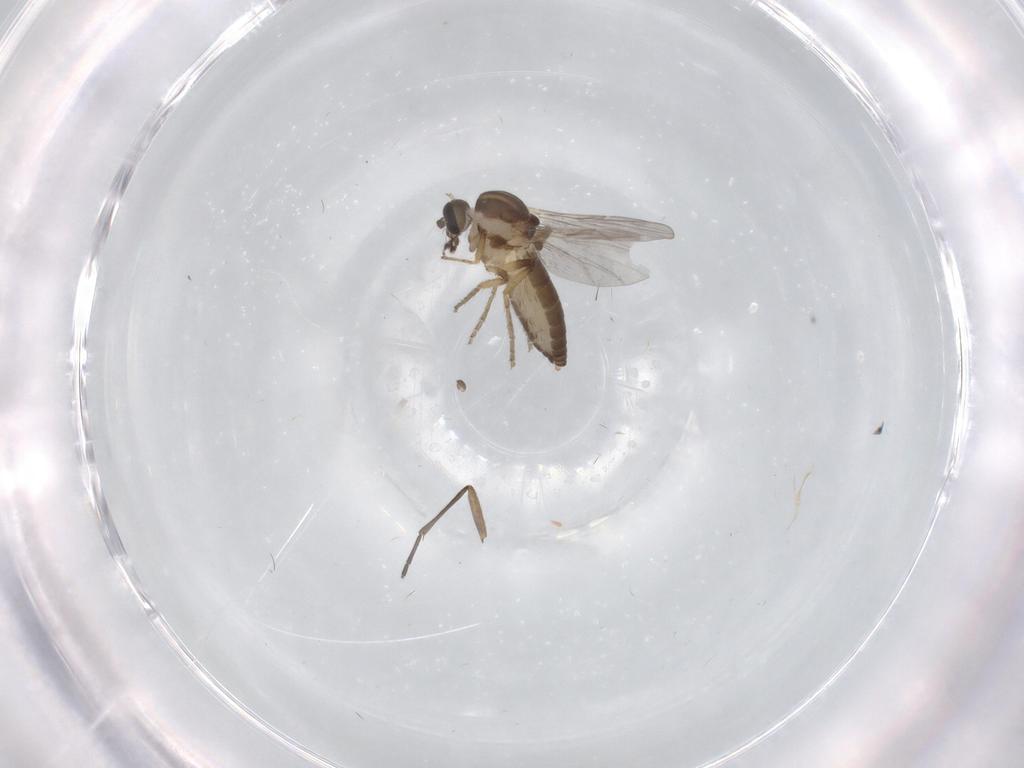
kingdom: Animalia
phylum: Arthropoda
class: Insecta
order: Diptera
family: Ceratopogonidae
